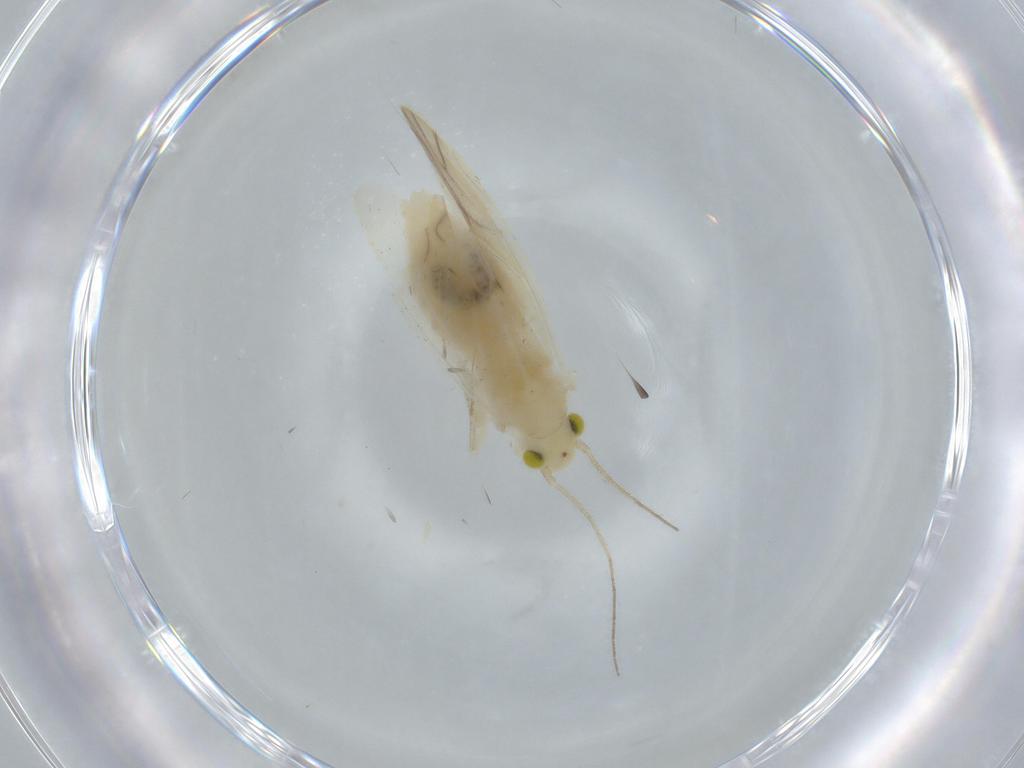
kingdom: Animalia
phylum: Arthropoda
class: Insecta
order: Psocodea
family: Caeciliusidae
